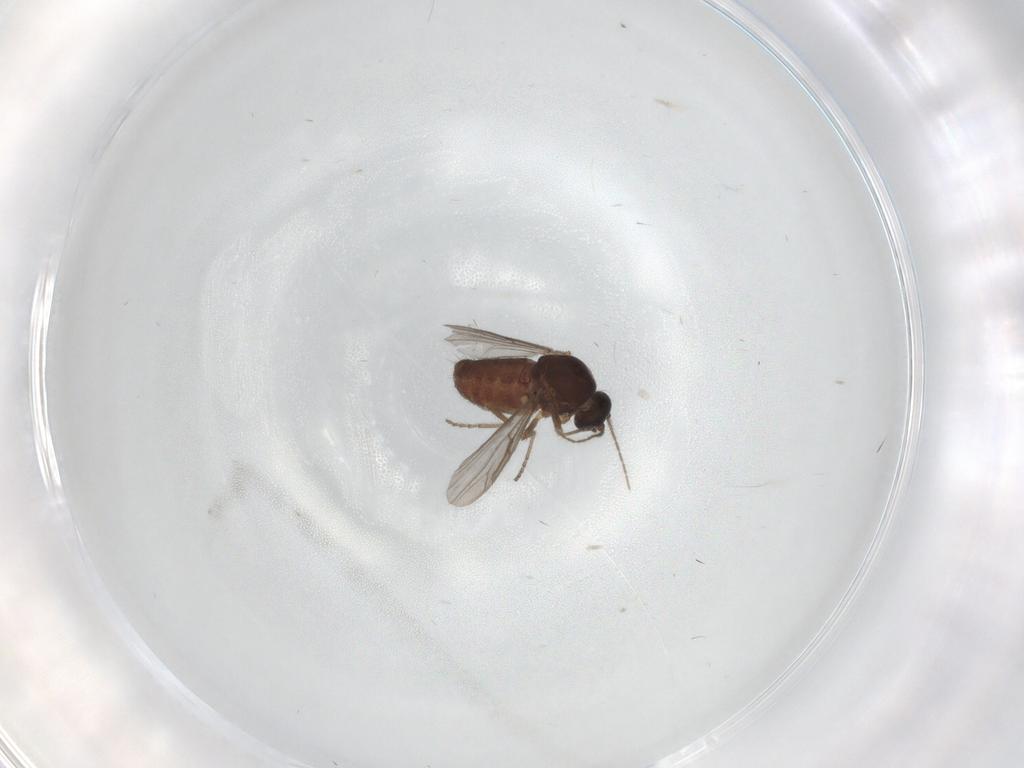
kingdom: Animalia
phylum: Arthropoda
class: Insecta
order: Diptera
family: Ceratopogonidae
